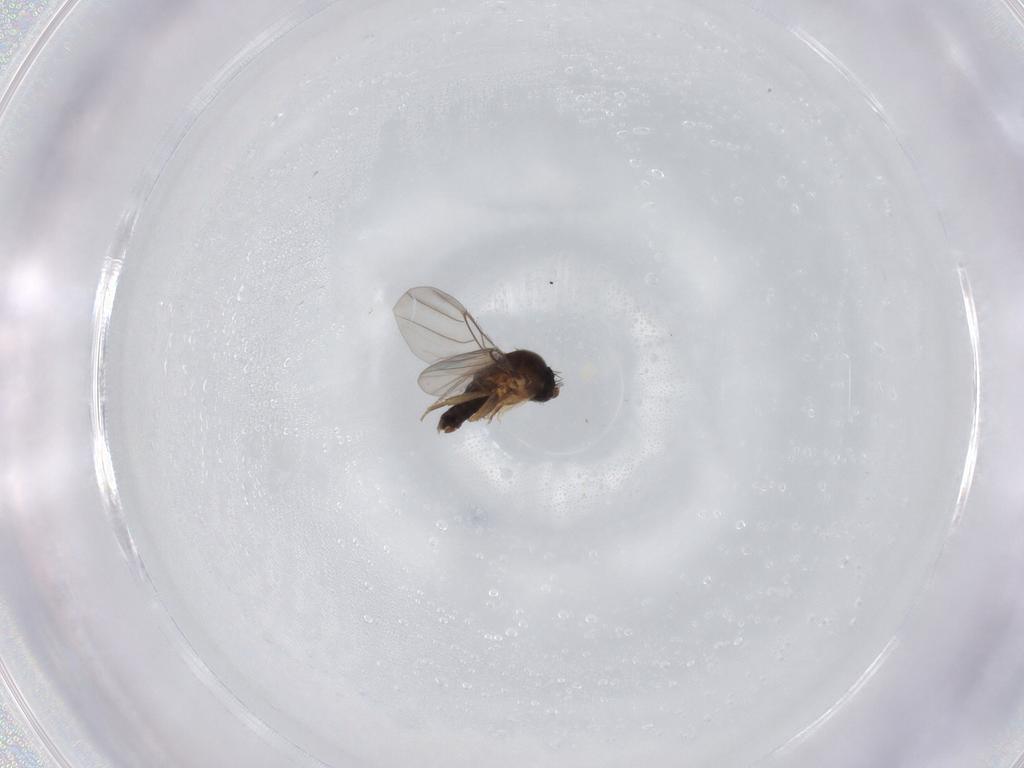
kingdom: Animalia
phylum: Arthropoda
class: Insecta
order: Diptera
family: Phoridae
